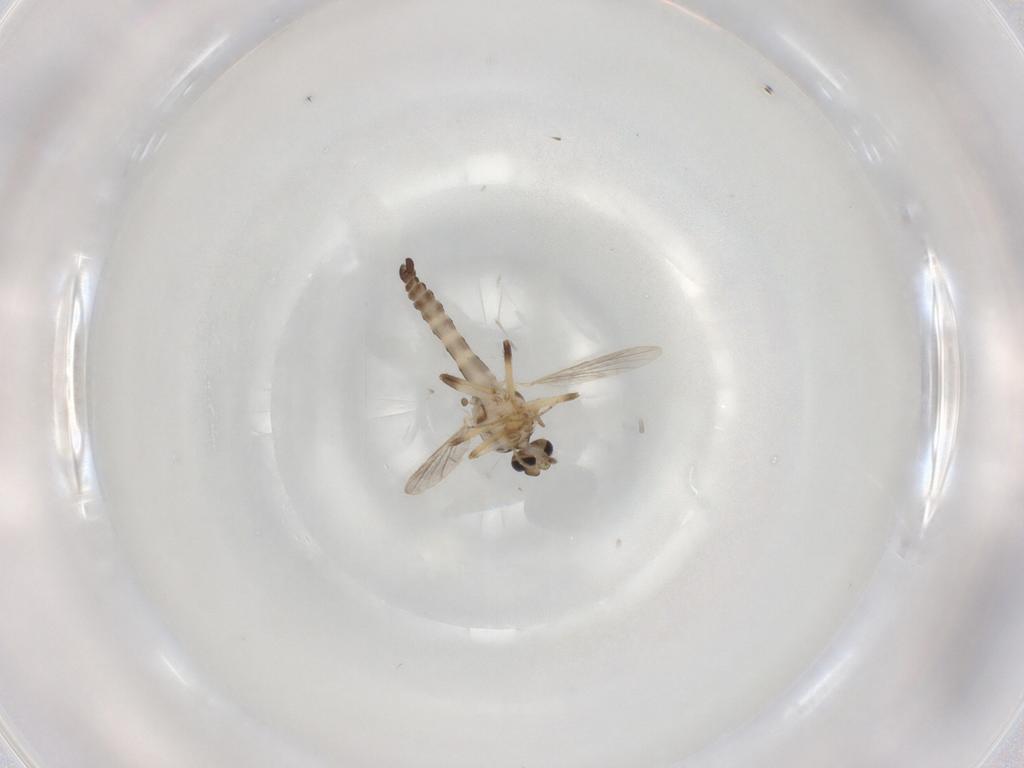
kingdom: Animalia
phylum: Arthropoda
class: Insecta
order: Diptera
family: Ceratopogonidae
